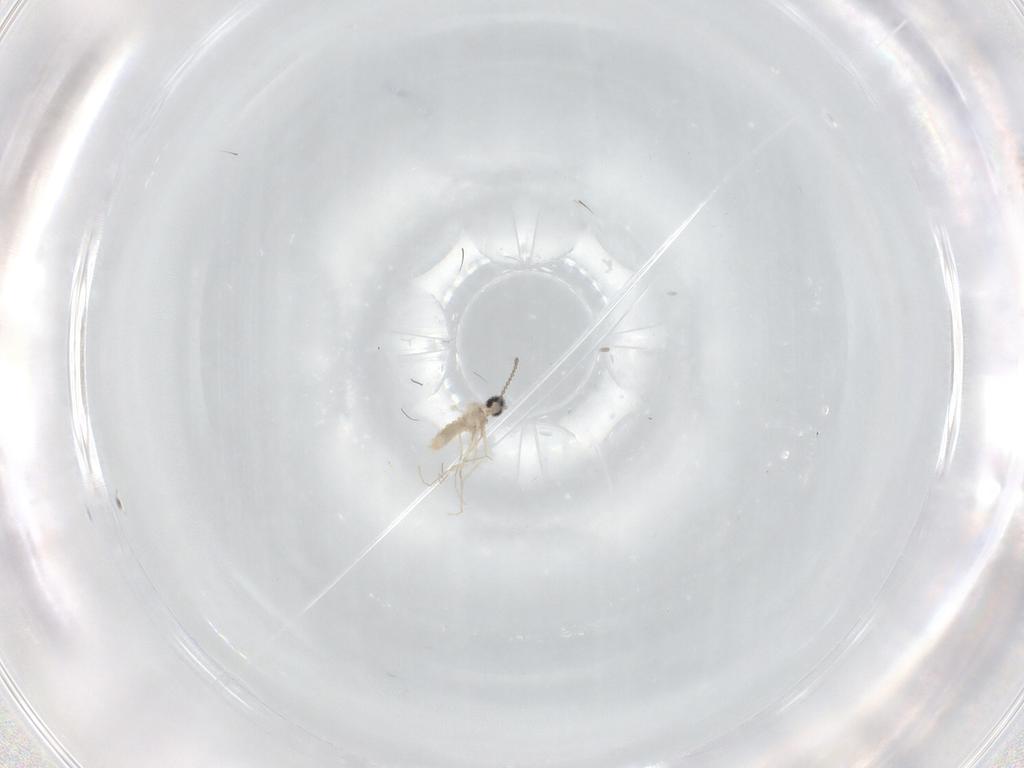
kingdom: Animalia
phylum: Arthropoda
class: Insecta
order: Diptera
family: Cecidomyiidae
